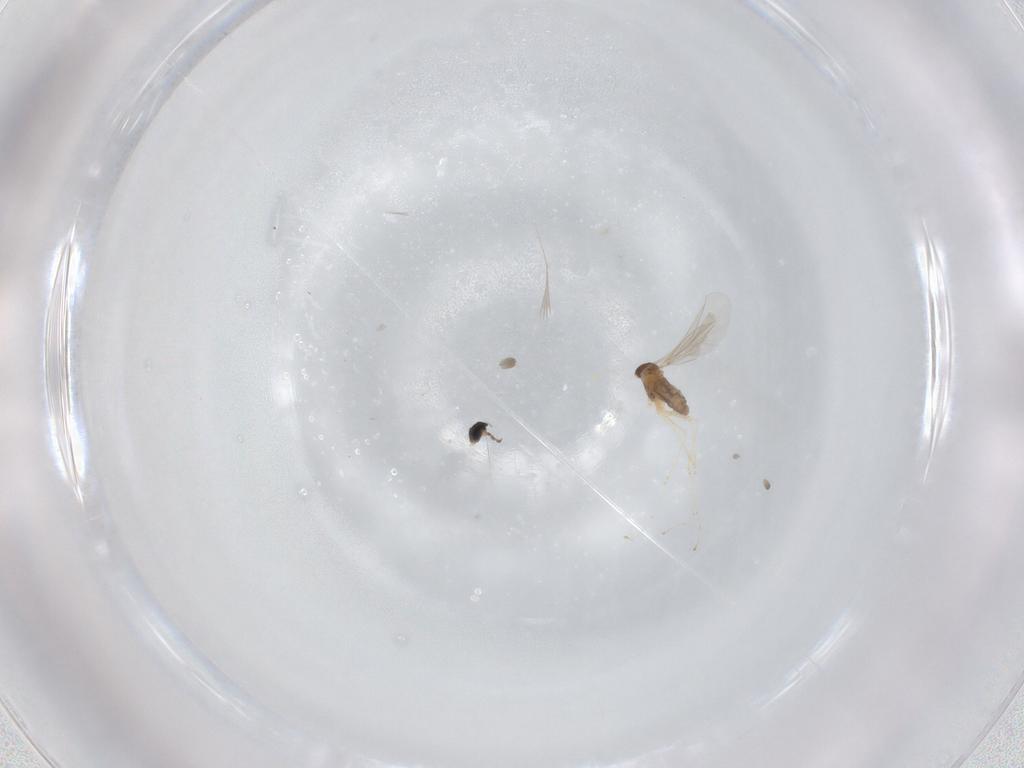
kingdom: Animalia
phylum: Arthropoda
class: Insecta
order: Diptera
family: Cecidomyiidae
